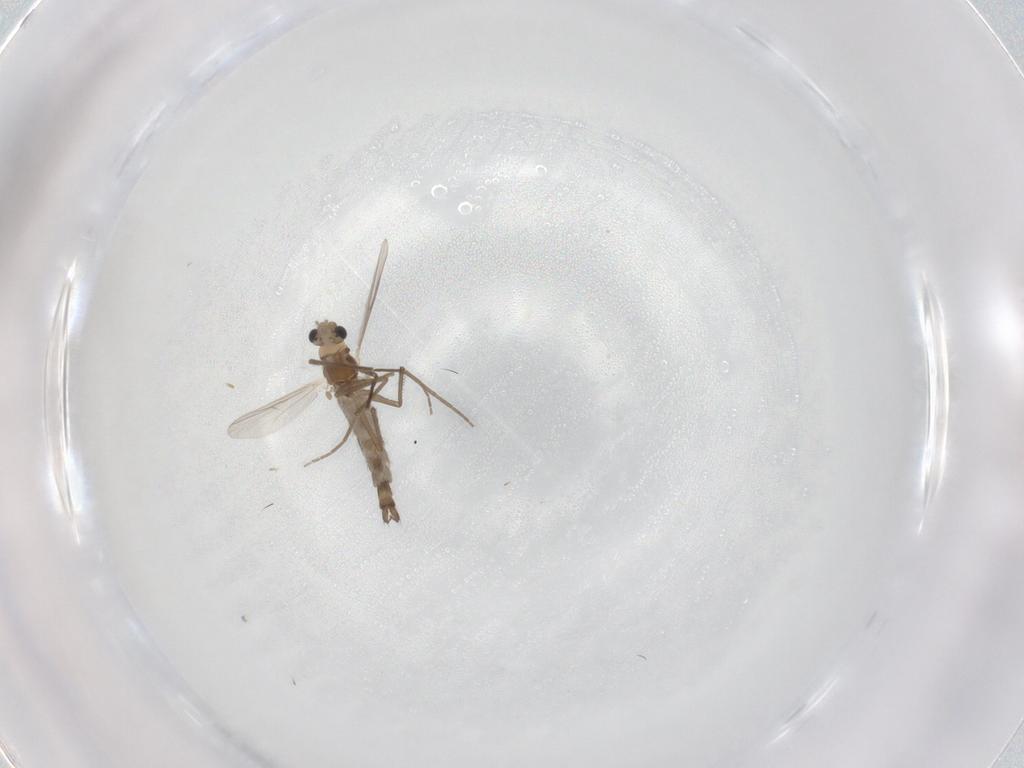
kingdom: Animalia
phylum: Arthropoda
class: Insecta
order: Diptera
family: Chironomidae
